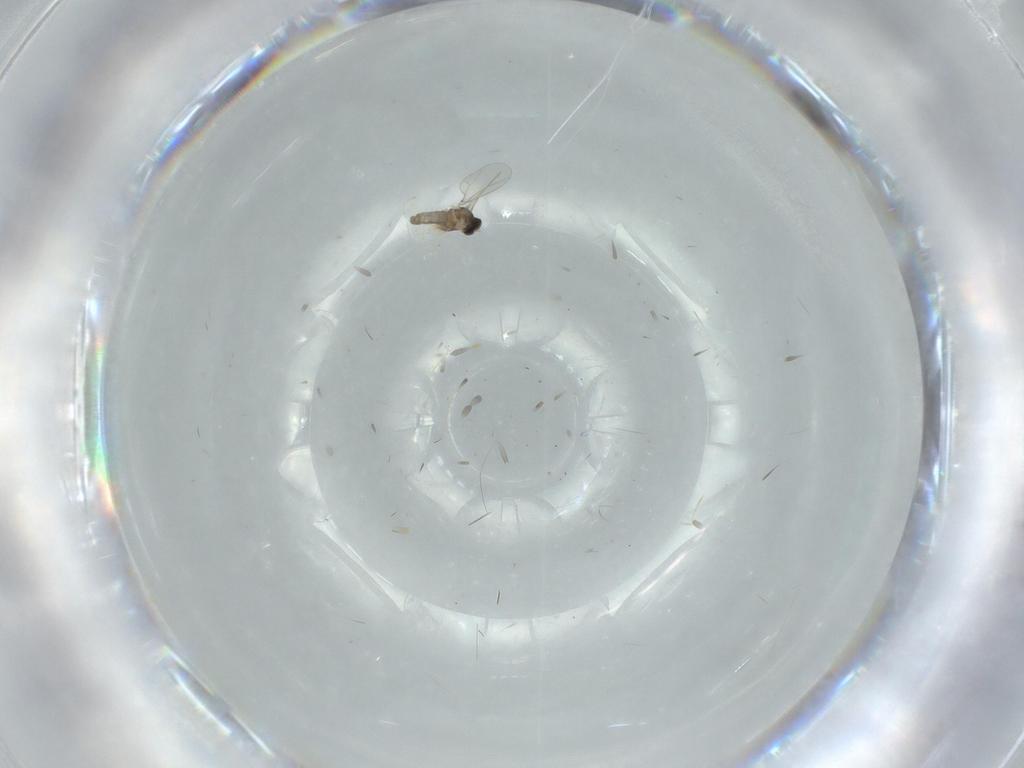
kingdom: Animalia
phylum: Arthropoda
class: Insecta
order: Diptera
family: Cecidomyiidae
